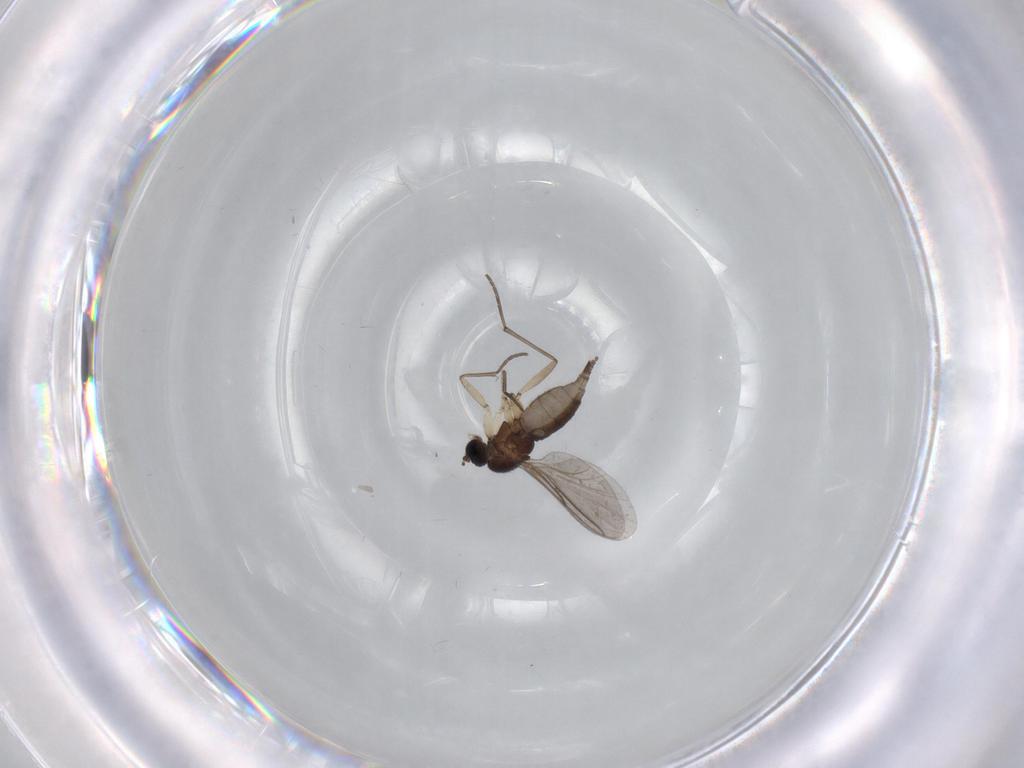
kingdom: Animalia
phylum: Arthropoda
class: Insecta
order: Diptera
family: Sciaridae
